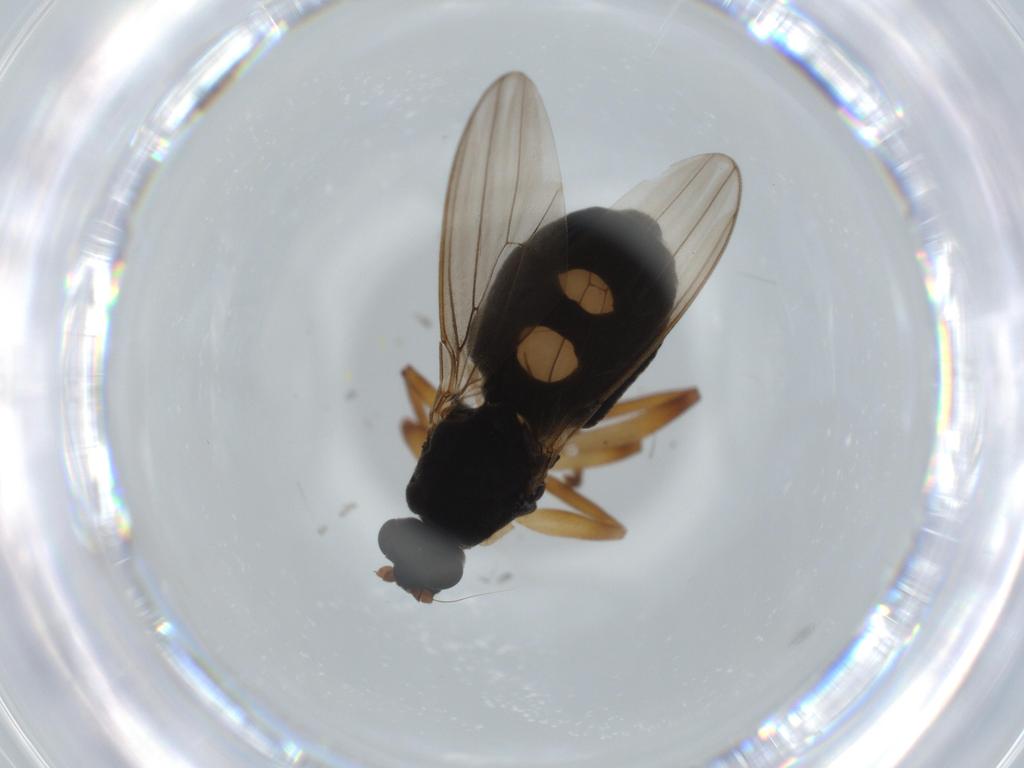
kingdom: Animalia
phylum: Arthropoda
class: Insecta
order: Diptera
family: Sphaeroceridae
